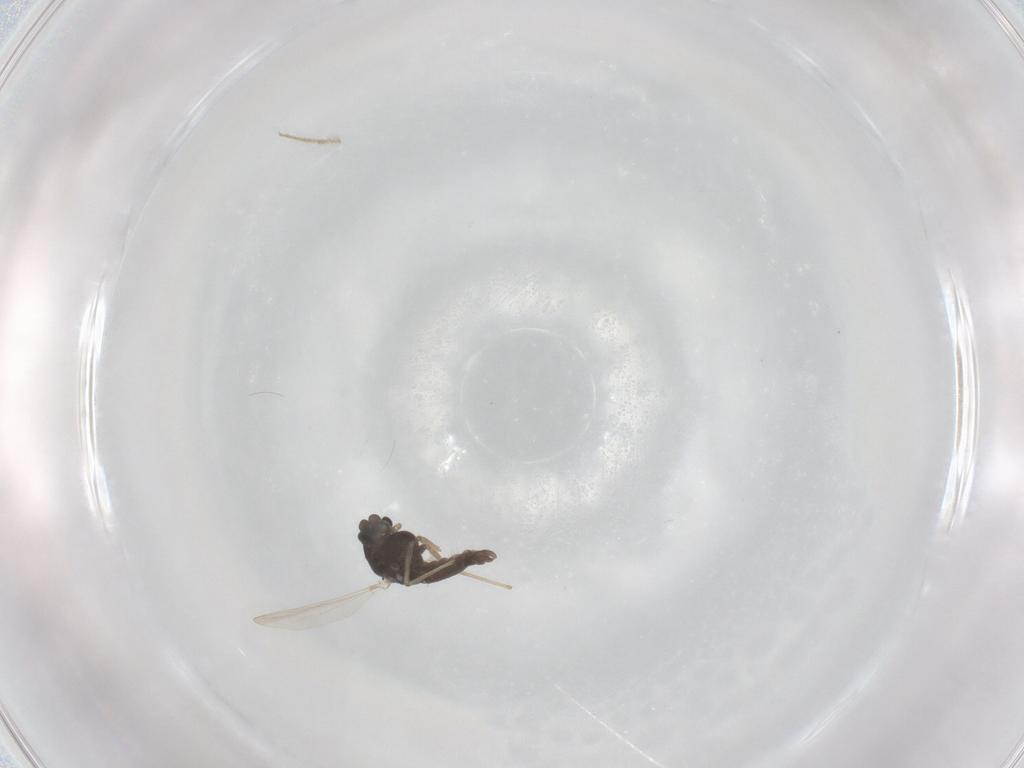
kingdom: Animalia
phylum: Arthropoda
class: Insecta
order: Diptera
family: Chironomidae
